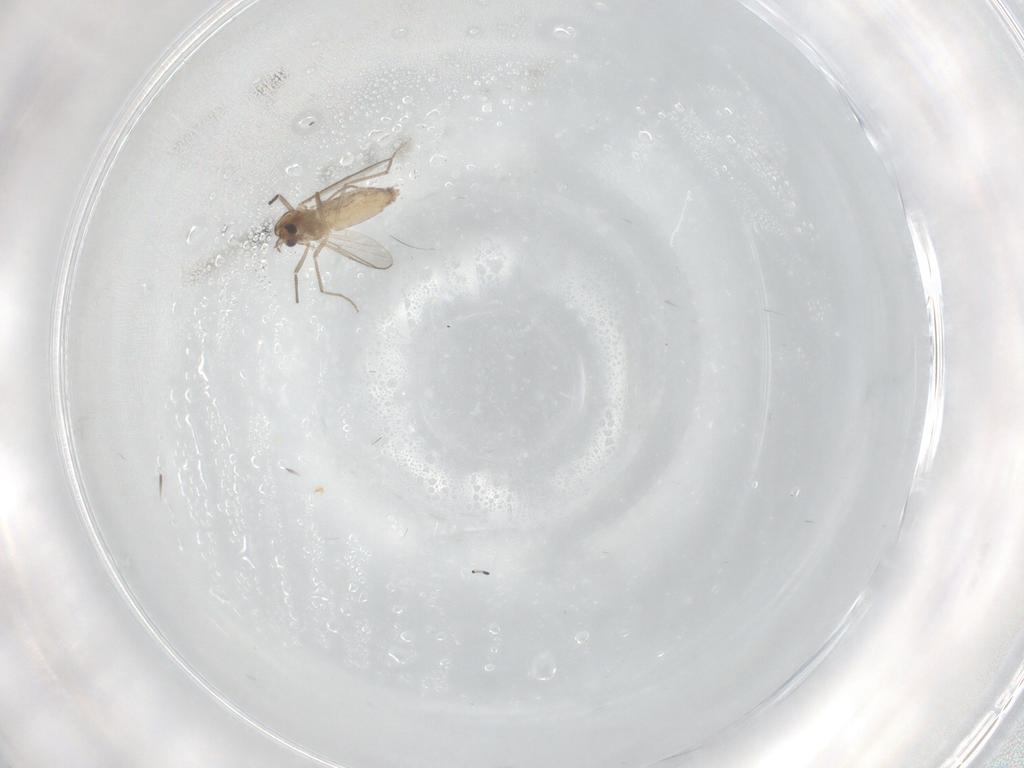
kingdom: Animalia
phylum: Arthropoda
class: Insecta
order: Diptera
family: Chironomidae
